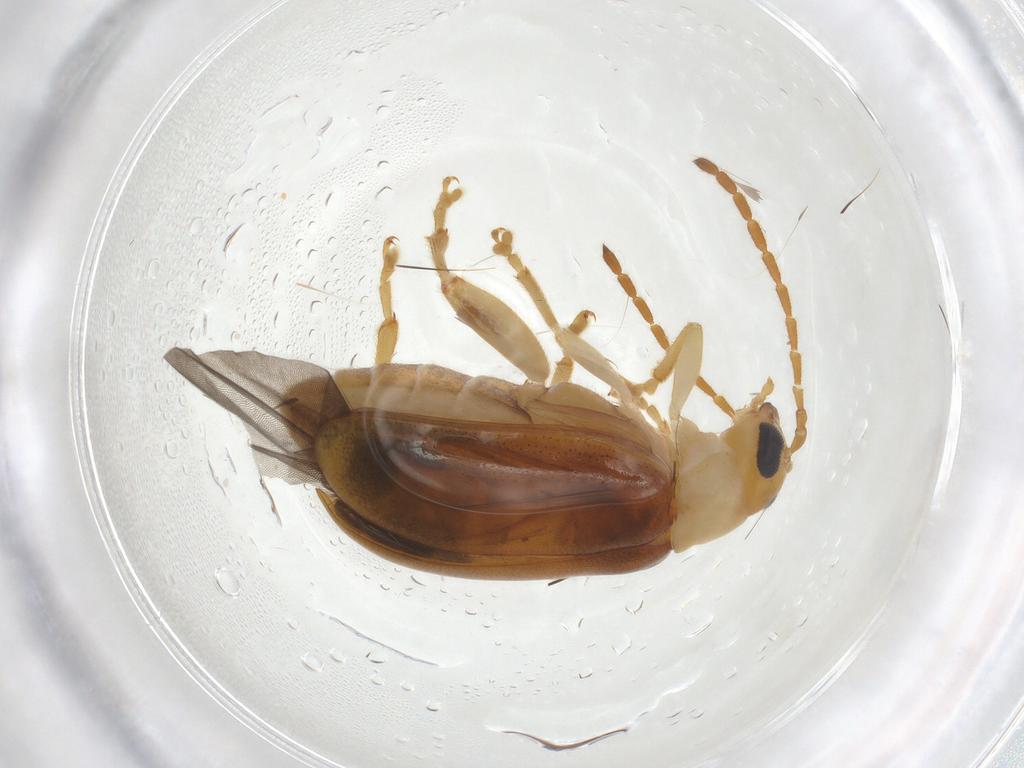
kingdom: Animalia
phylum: Arthropoda
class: Insecta
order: Coleoptera
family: Chrysomelidae
